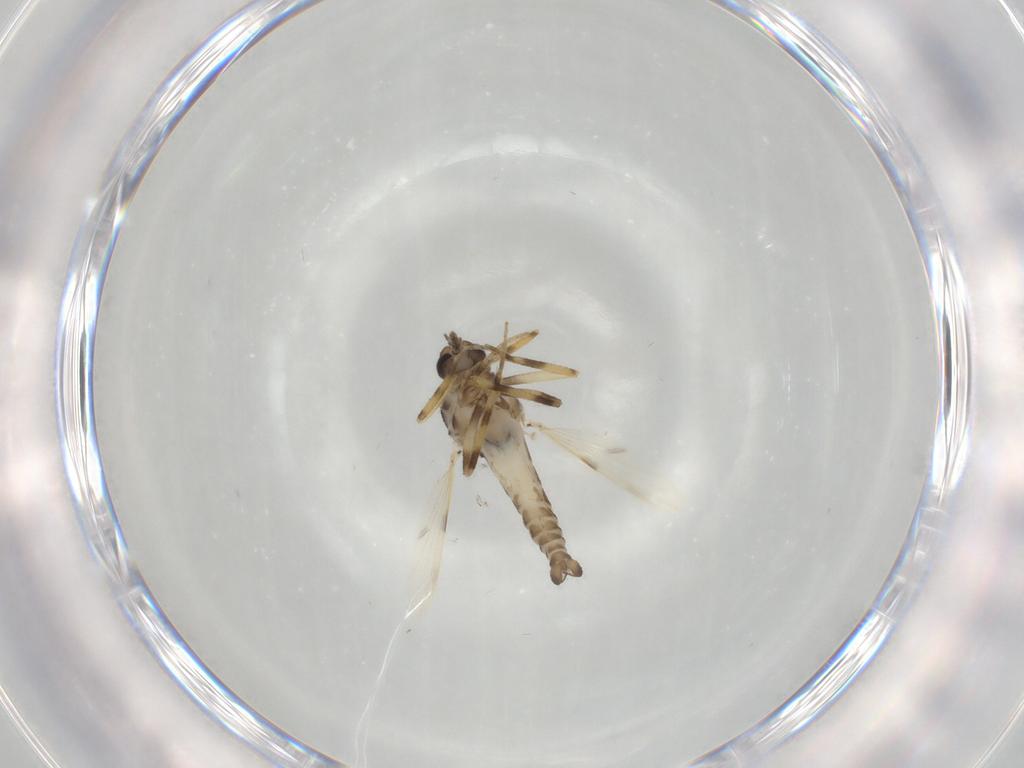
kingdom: Animalia
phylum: Arthropoda
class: Insecta
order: Diptera
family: Ceratopogonidae
